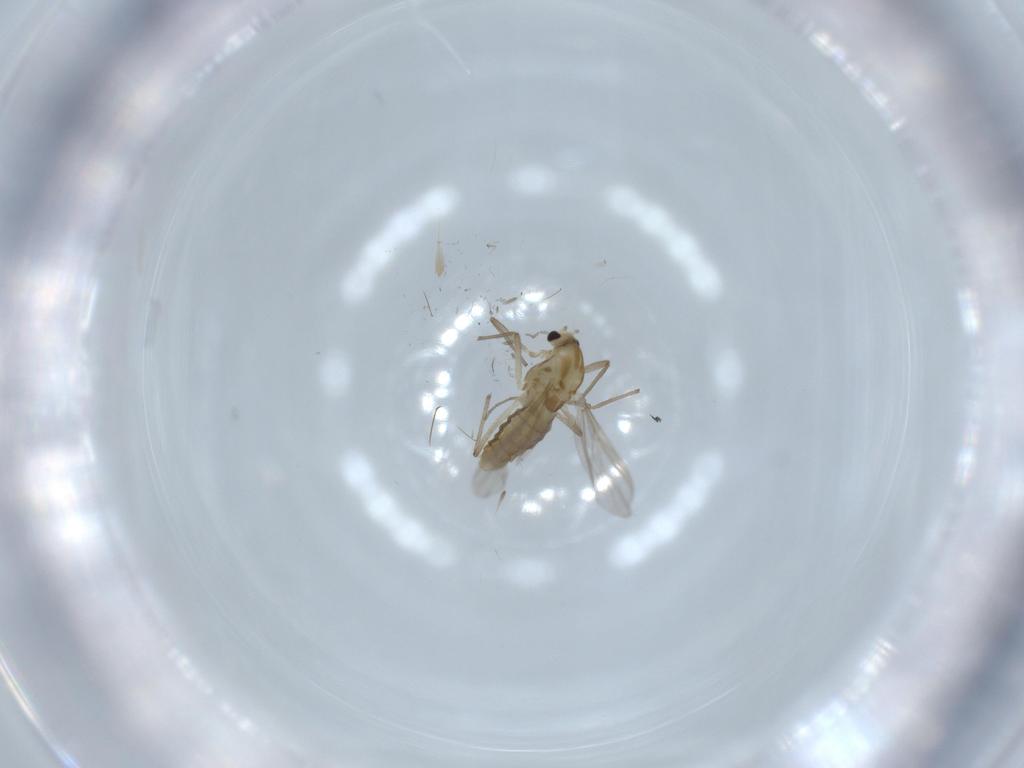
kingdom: Animalia
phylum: Arthropoda
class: Insecta
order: Diptera
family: Chironomidae
